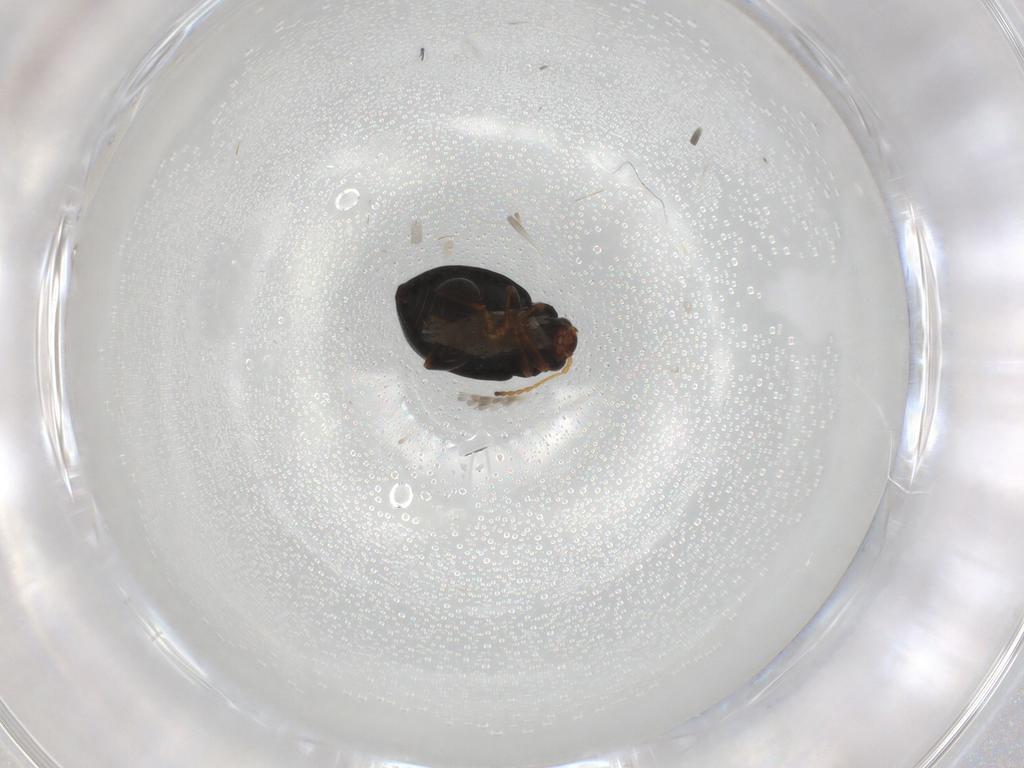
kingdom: Animalia
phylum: Arthropoda
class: Insecta
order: Coleoptera
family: Chrysomelidae
